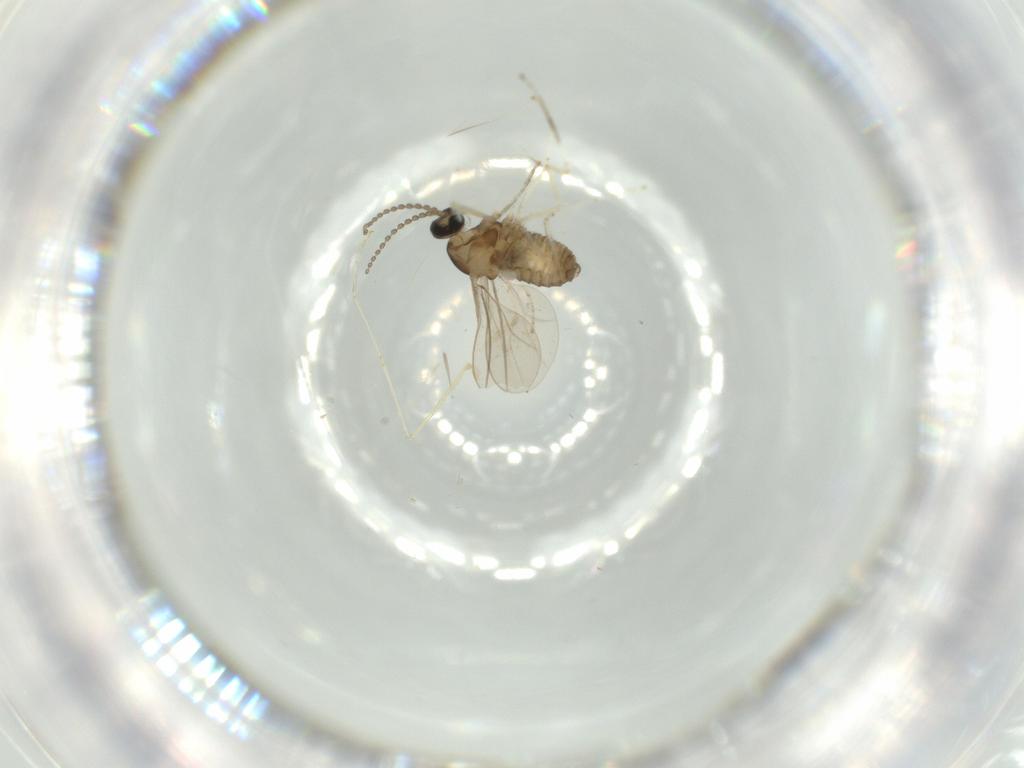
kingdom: Animalia
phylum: Arthropoda
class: Insecta
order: Diptera
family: Cecidomyiidae
